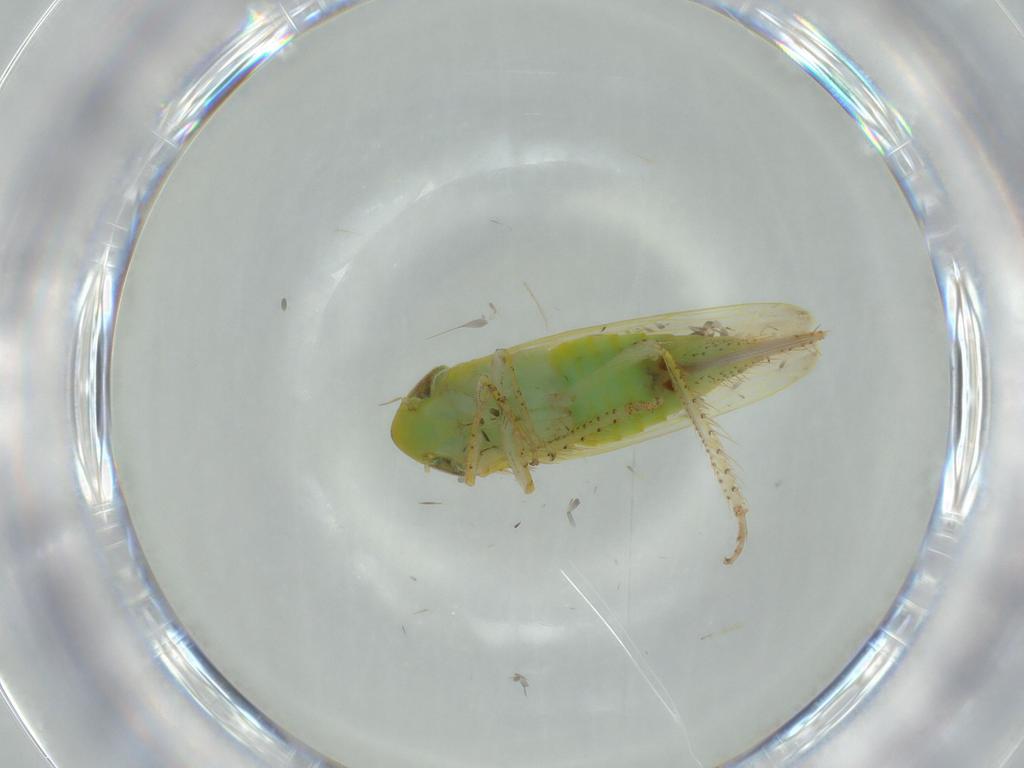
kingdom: Animalia
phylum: Arthropoda
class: Insecta
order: Hemiptera
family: Cicadellidae
